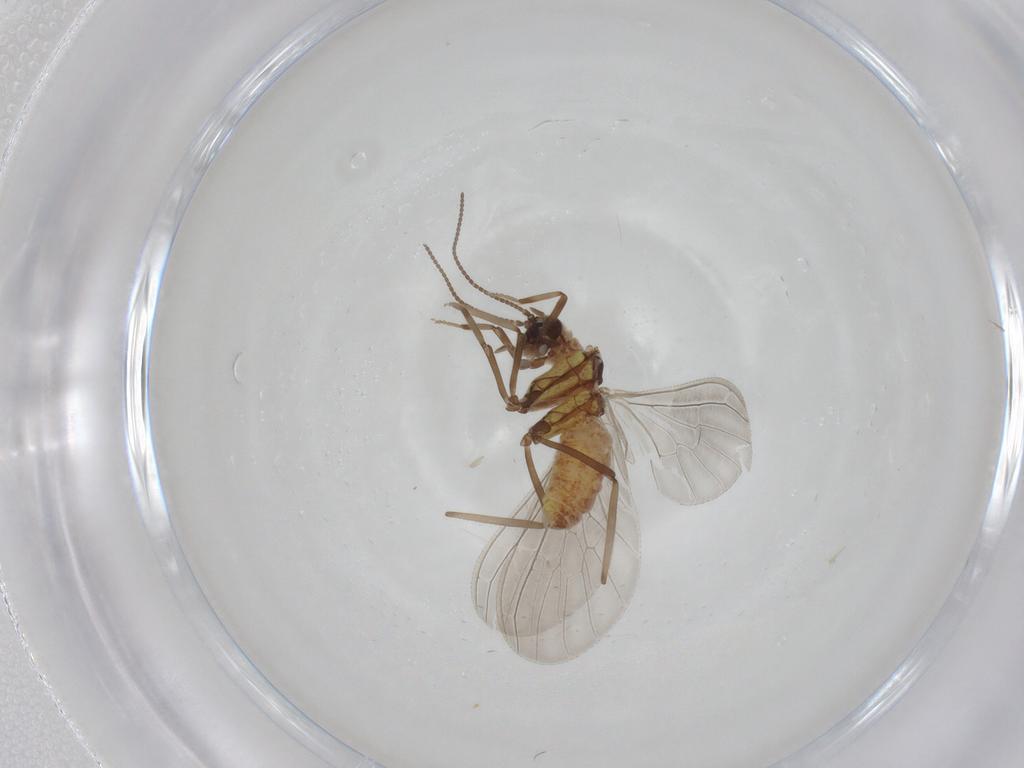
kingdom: Animalia
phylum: Arthropoda
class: Insecta
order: Neuroptera
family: Coniopterygidae
